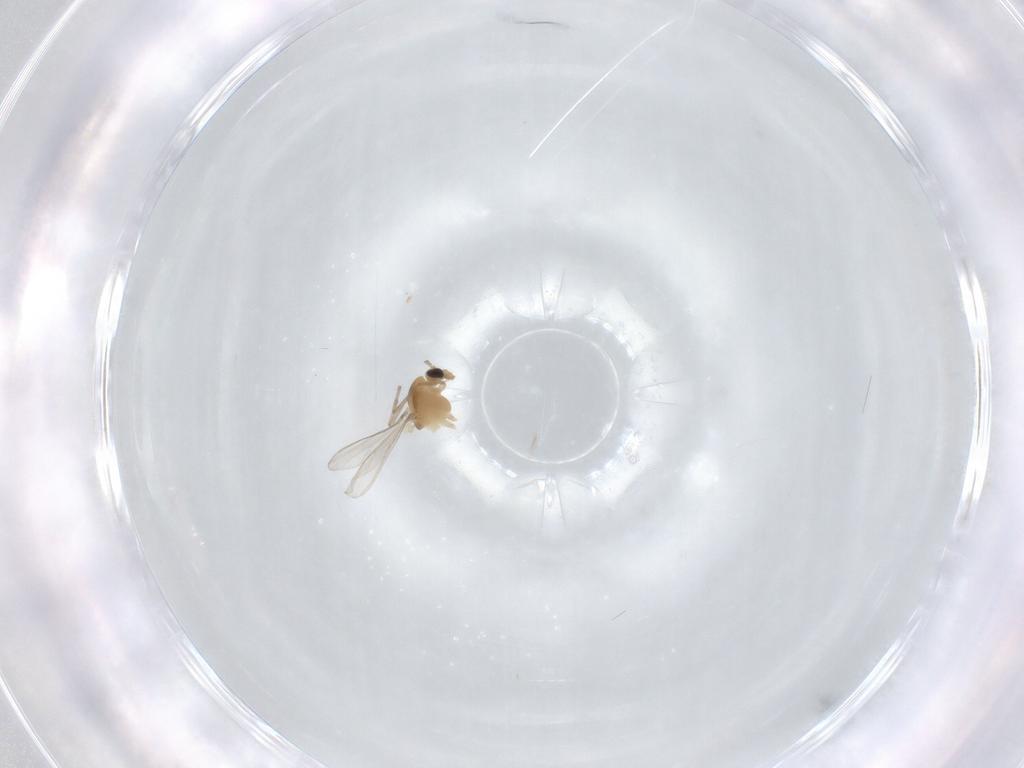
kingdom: Animalia
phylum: Arthropoda
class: Insecta
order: Diptera
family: Chironomidae
